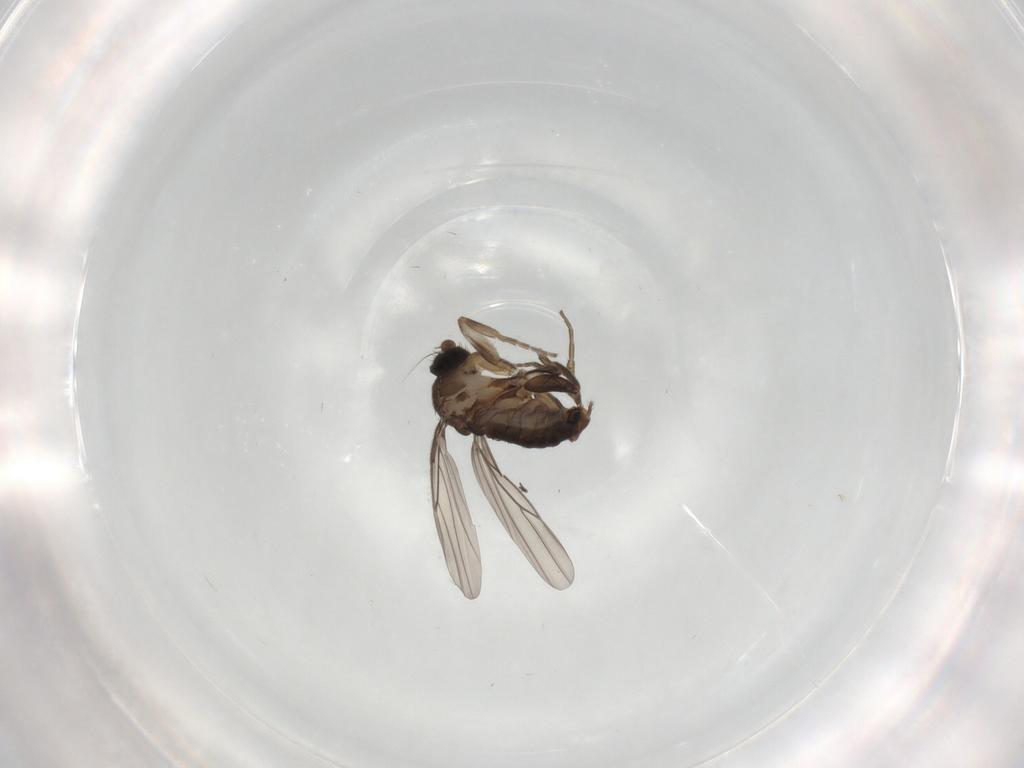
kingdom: Animalia
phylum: Arthropoda
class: Insecta
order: Diptera
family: Phoridae
